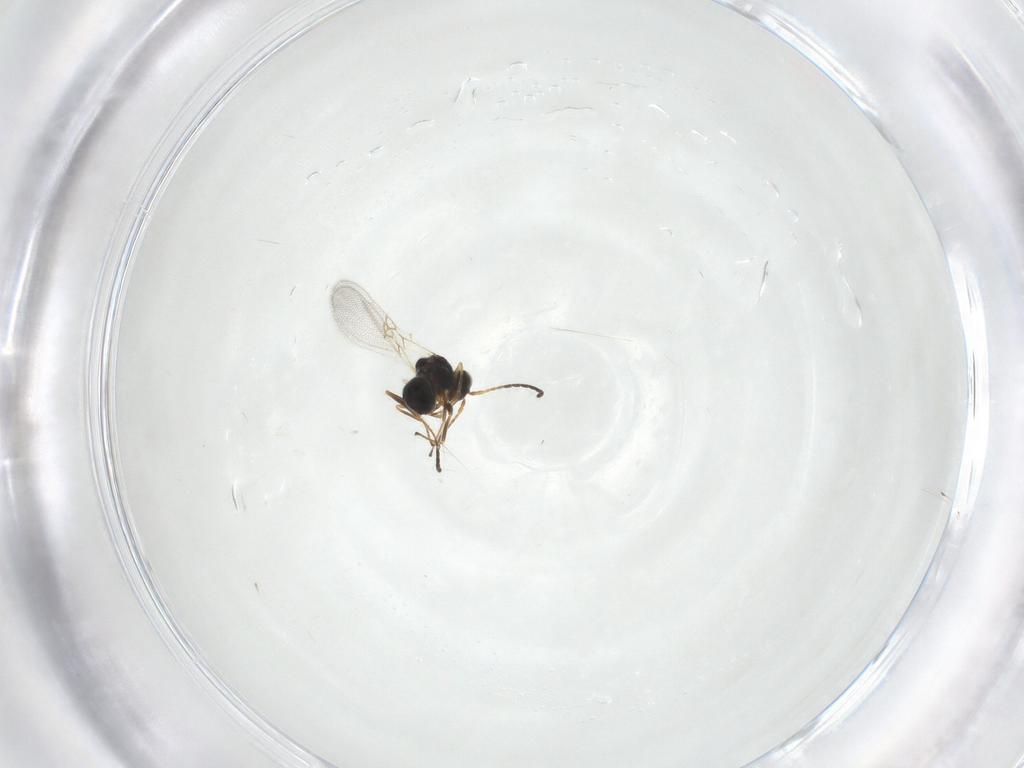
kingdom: Animalia
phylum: Arthropoda
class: Insecta
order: Hymenoptera
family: Figitidae
